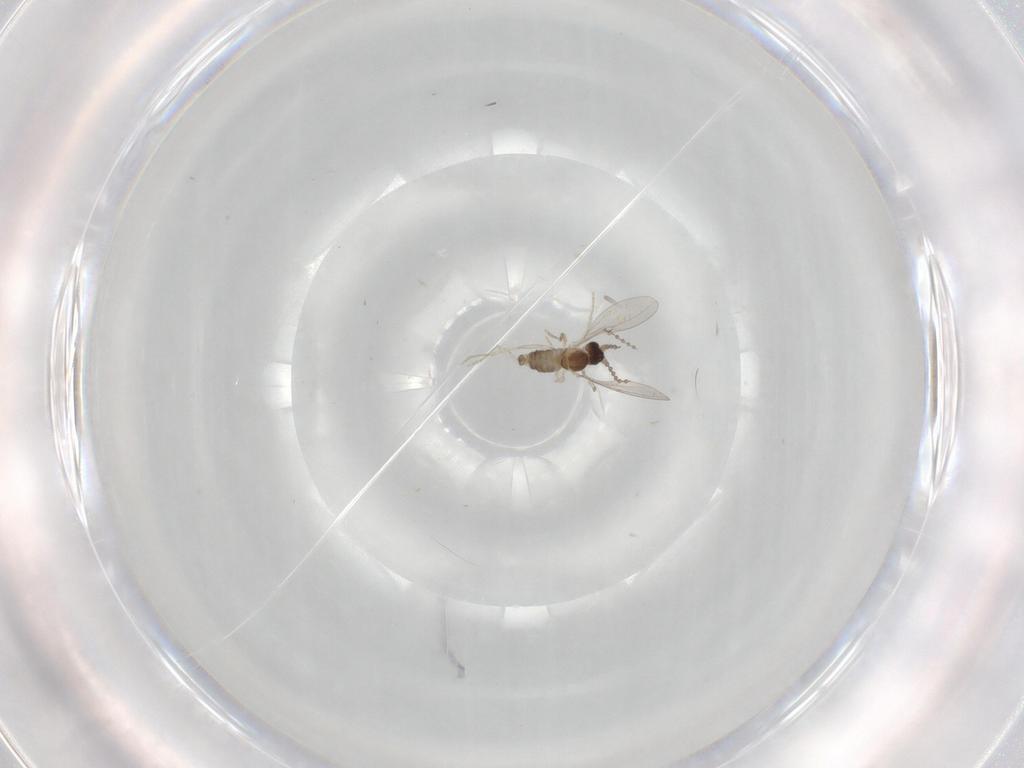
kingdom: Animalia
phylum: Arthropoda
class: Insecta
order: Diptera
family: Cecidomyiidae
